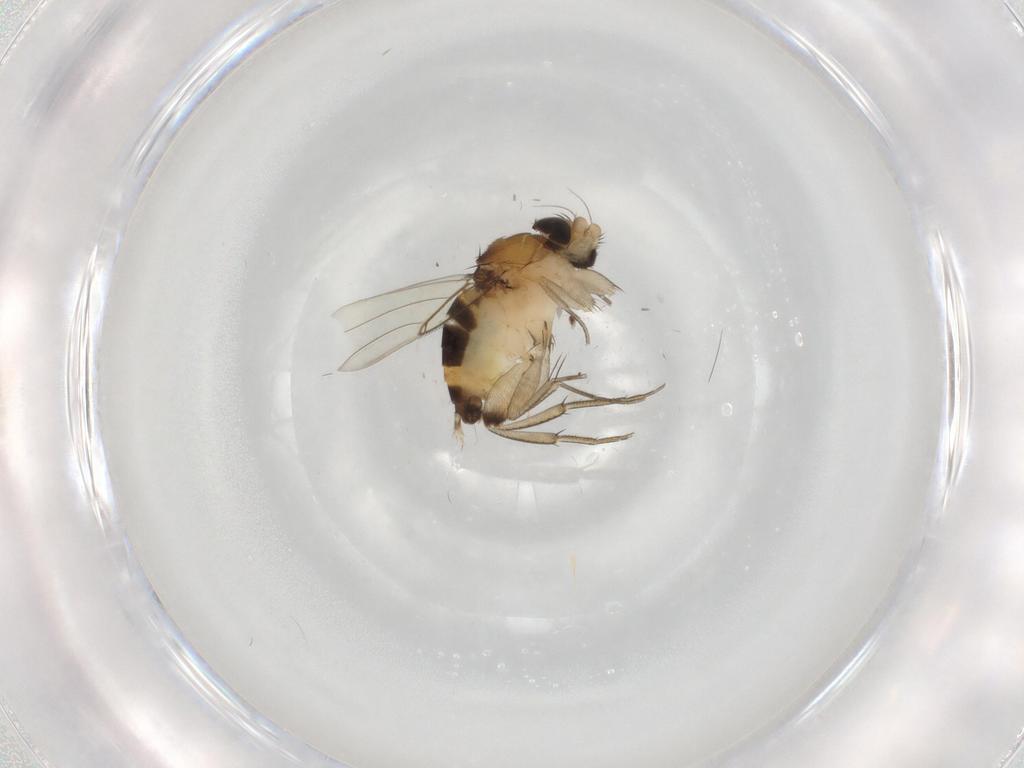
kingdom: Animalia
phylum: Arthropoda
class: Insecta
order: Diptera
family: Phoridae
